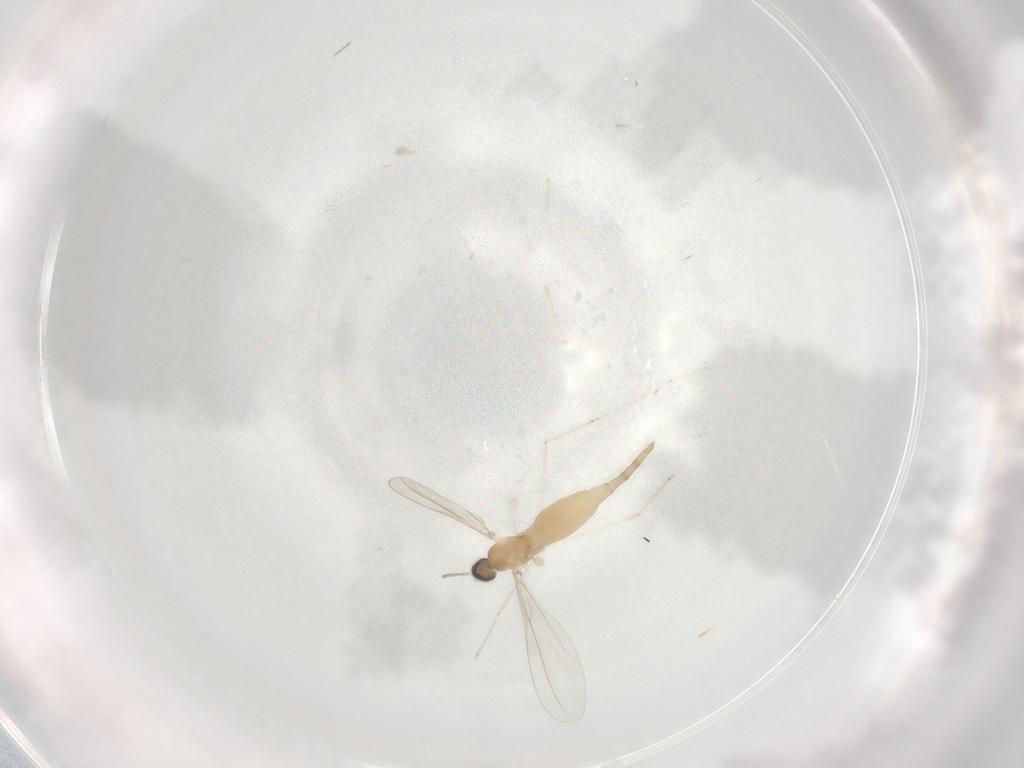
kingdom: Animalia
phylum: Arthropoda
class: Insecta
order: Diptera
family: Cecidomyiidae
